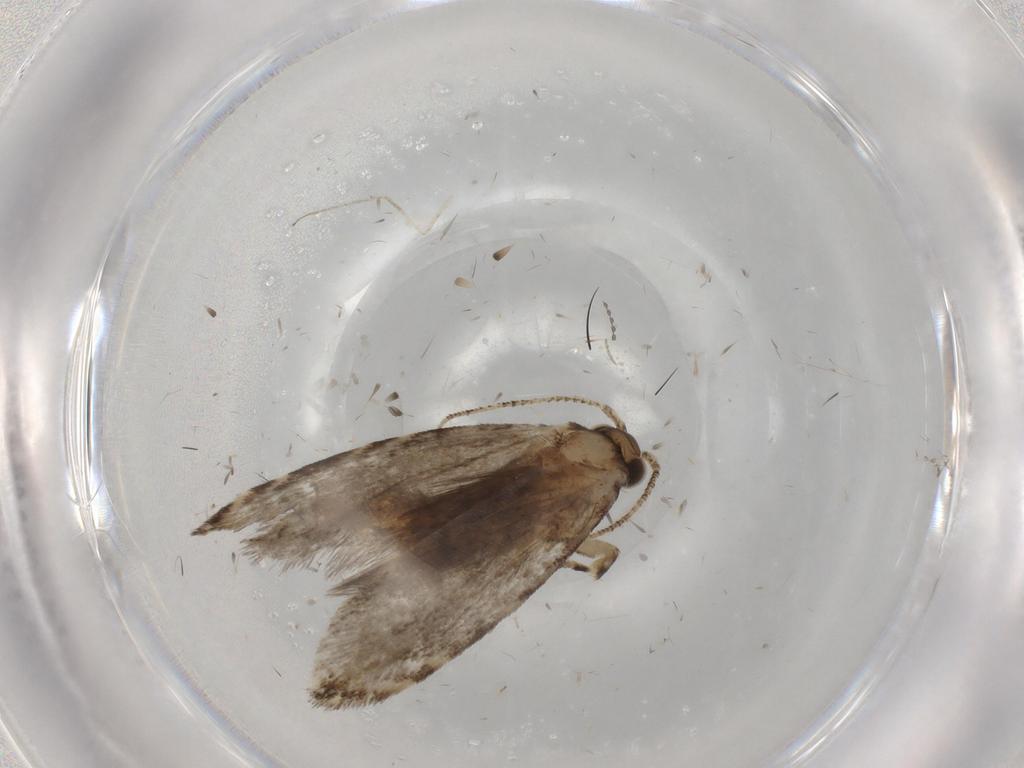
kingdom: Animalia
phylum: Arthropoda
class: Insecta
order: Lepidoptera
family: Tineidae
